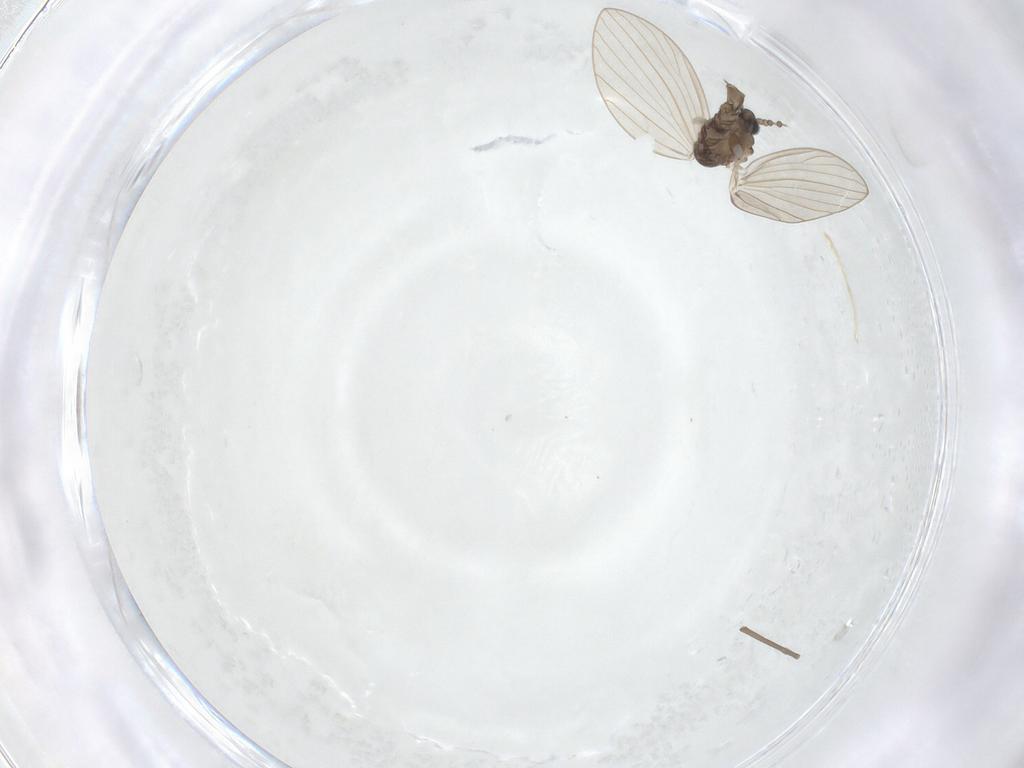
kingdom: Animalia
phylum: Arthropoda
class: Insecta
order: Diptera
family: Psychodidae
